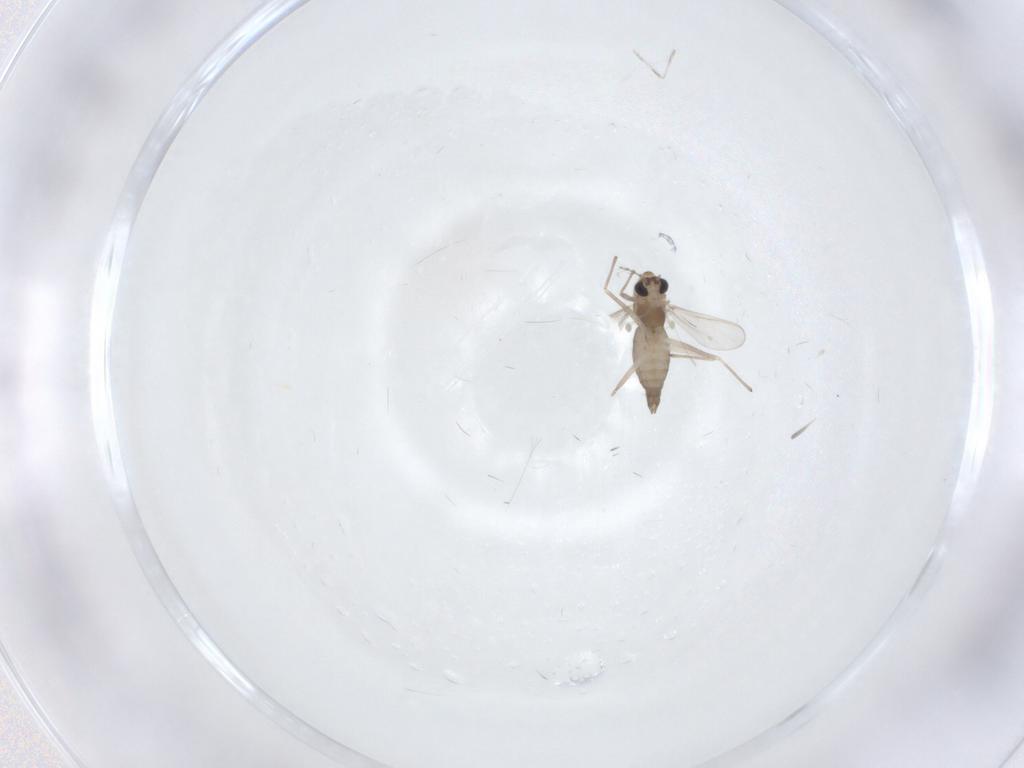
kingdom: Animalia
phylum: Arthropoda
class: Insecta
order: Diptera
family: Chironomidae
